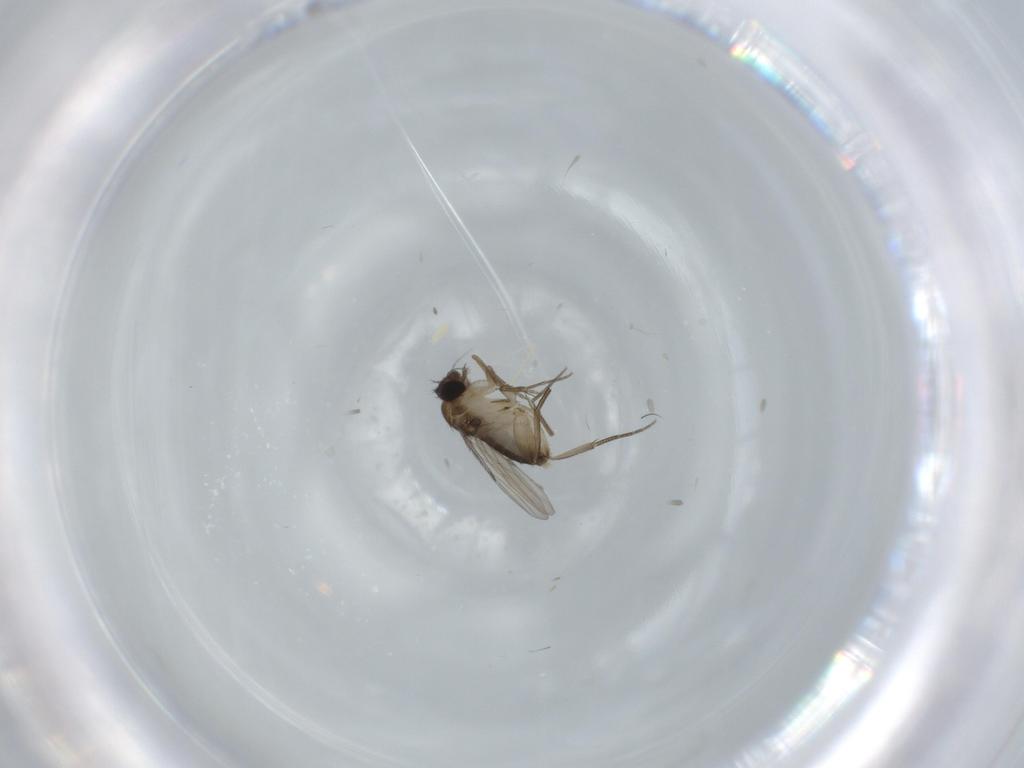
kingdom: Animalia
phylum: Arthropoda
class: Insecta
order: Diptera
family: Phoridae
